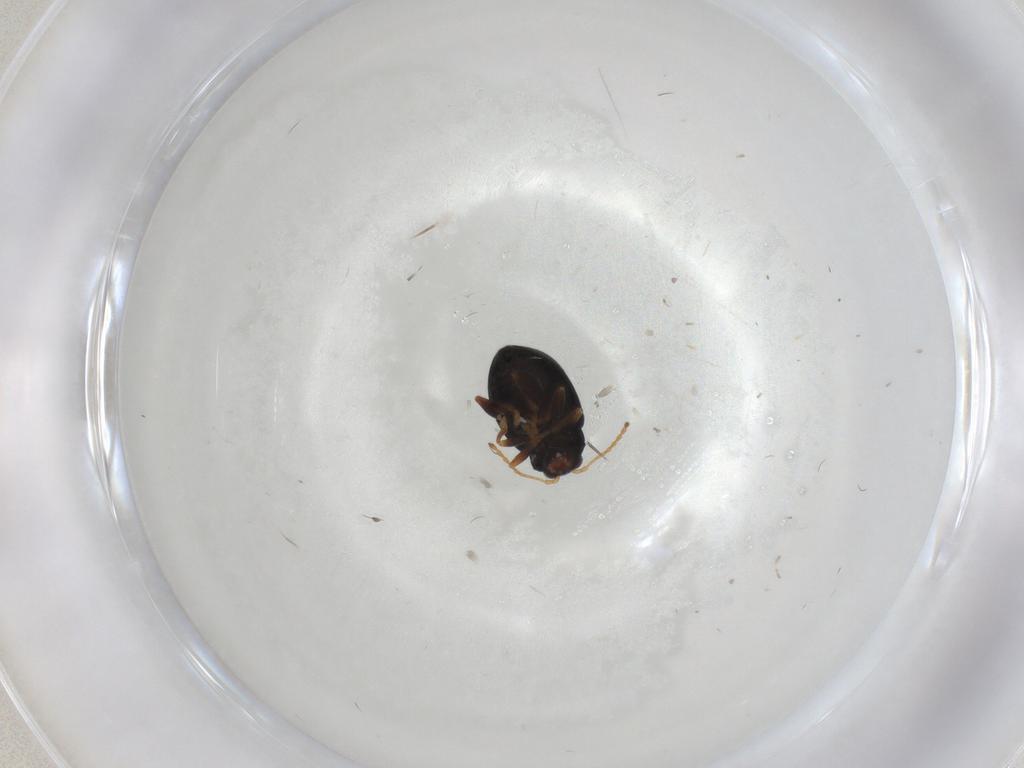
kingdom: Animalia
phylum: Arthropoda
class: Insecta
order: Coleoptera
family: Chrysomelidae
